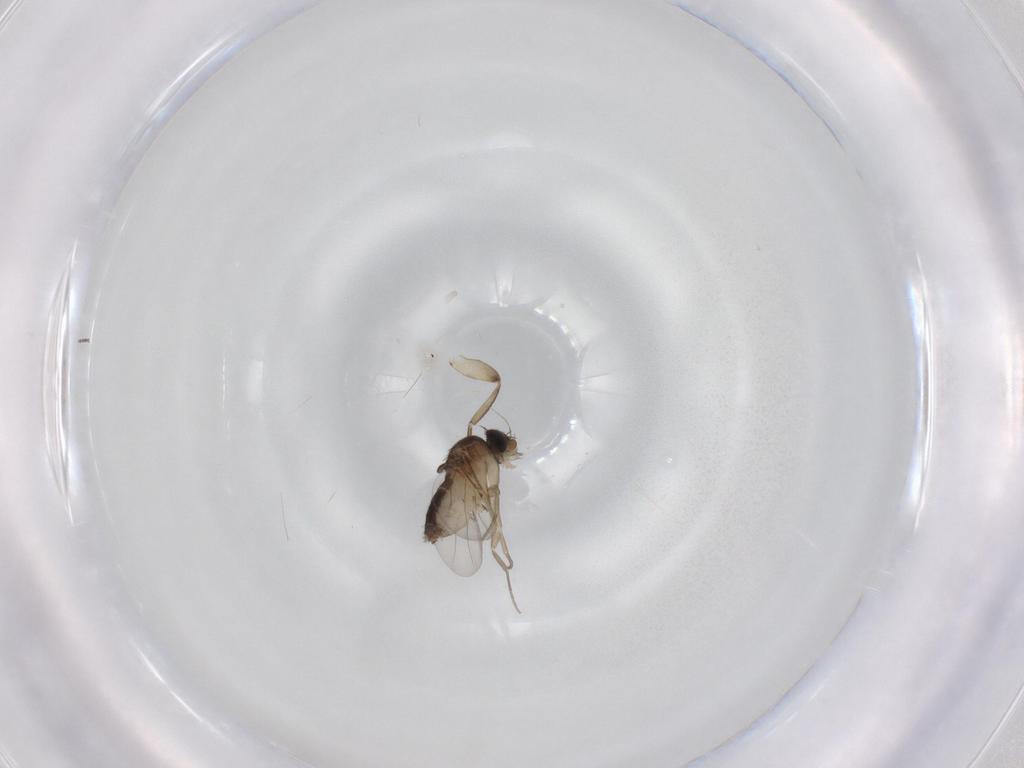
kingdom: Animalia
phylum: Arthropoda
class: Insecta
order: Diptera
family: Phoridae
